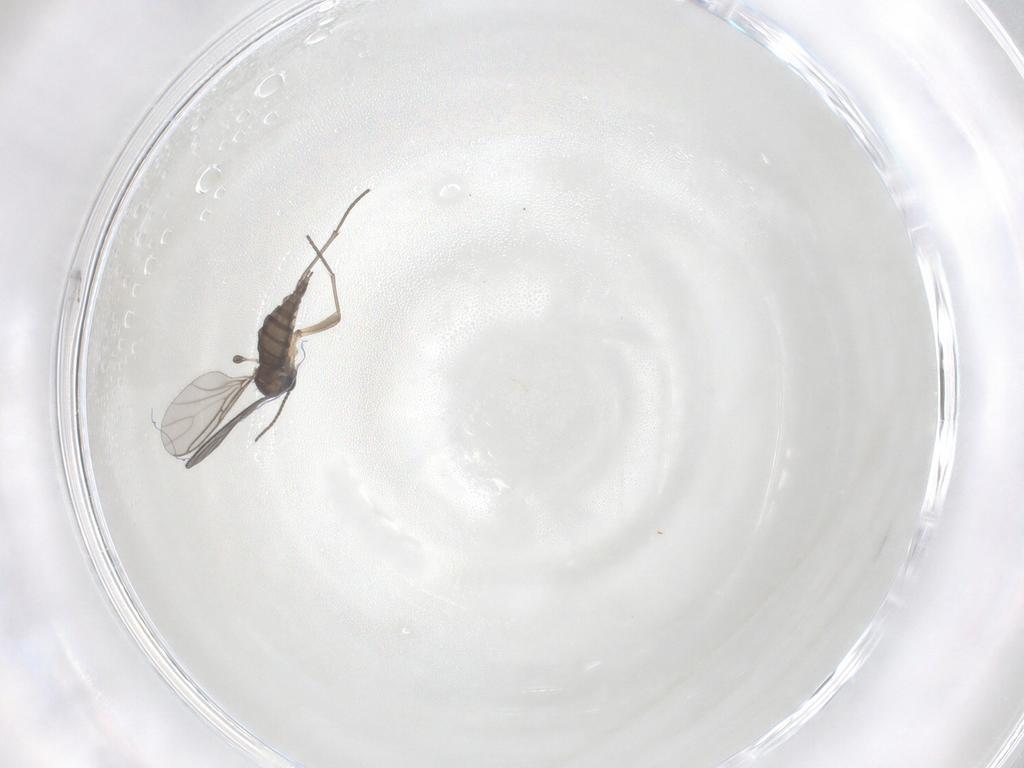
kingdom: Animalia
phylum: Arthropoda
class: Insecta
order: Diptera
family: Sciaridae
